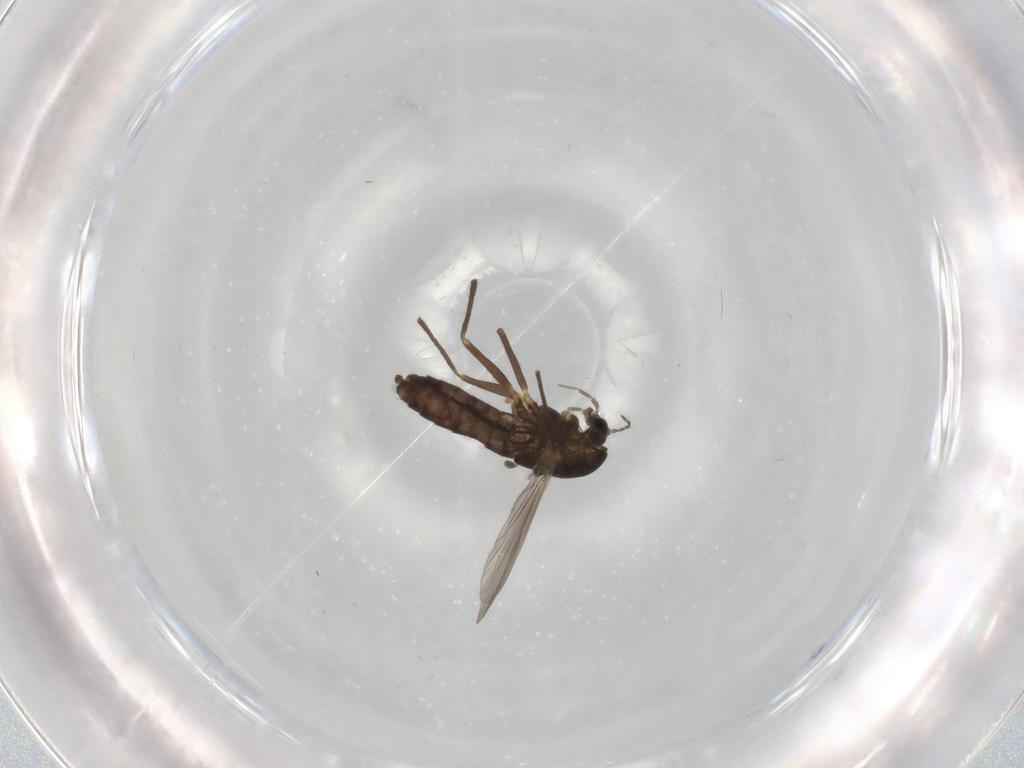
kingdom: Animalia
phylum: Arthropoda
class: Insecta
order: Diptera
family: Chironomidae
